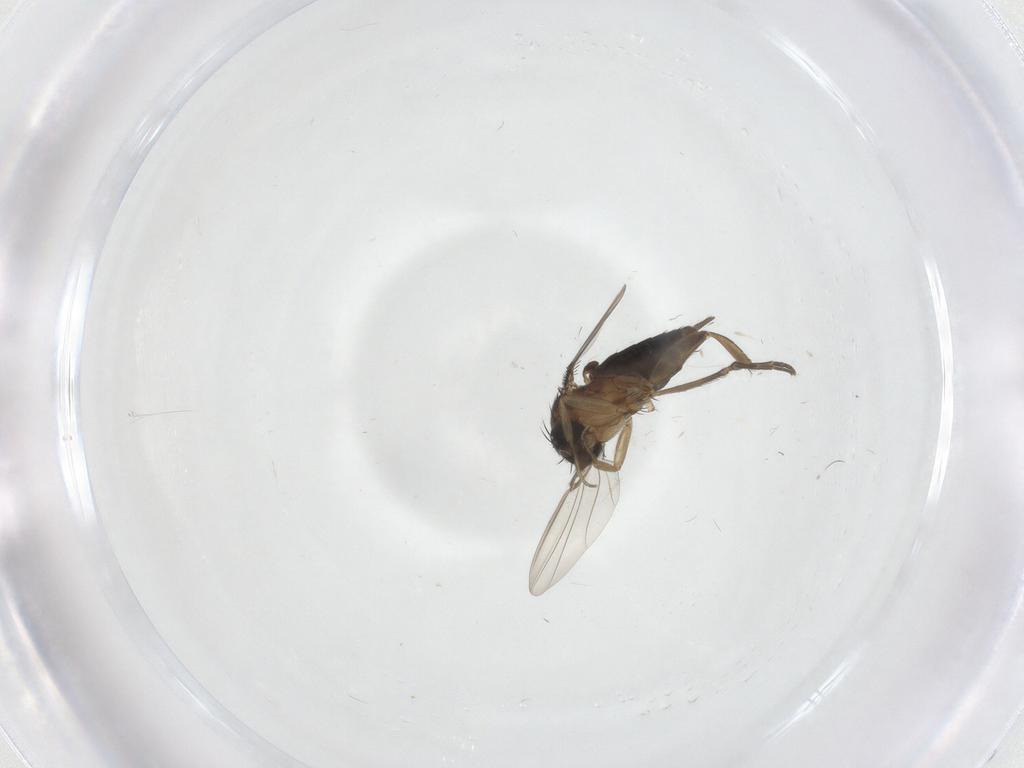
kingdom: Animalia
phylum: Arthropoda
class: Insecta
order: Diptera
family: Phoridae
